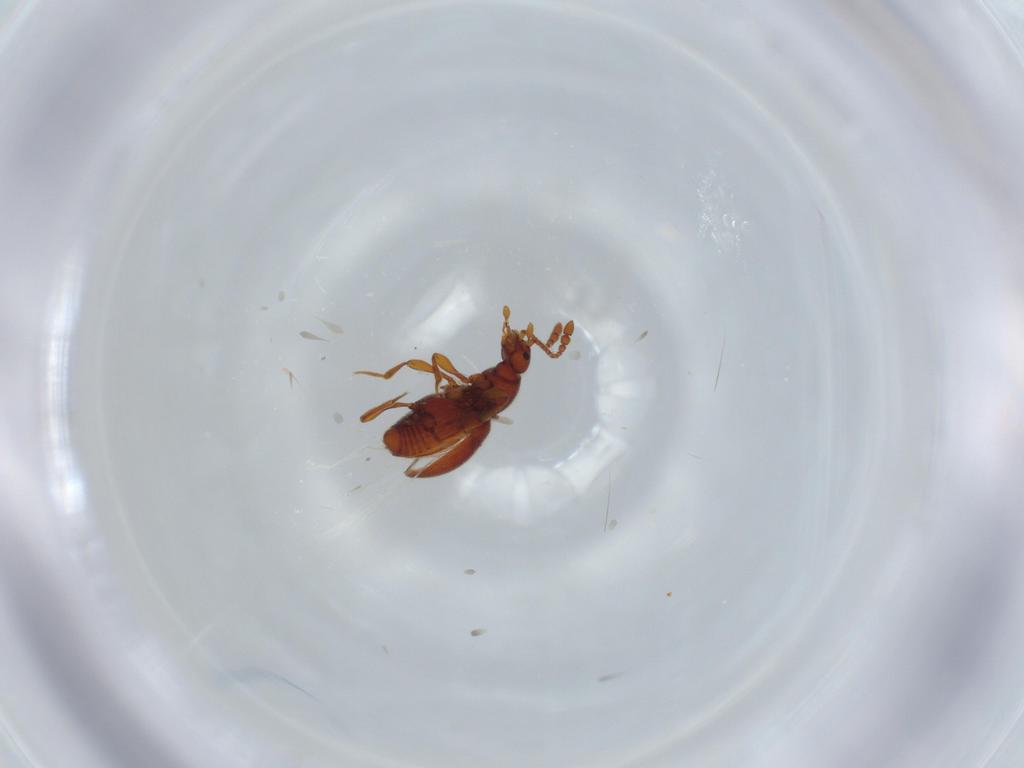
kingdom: Animalia
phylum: Arthropoda
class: Insecta
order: Coleoptera
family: Staphylinidae
